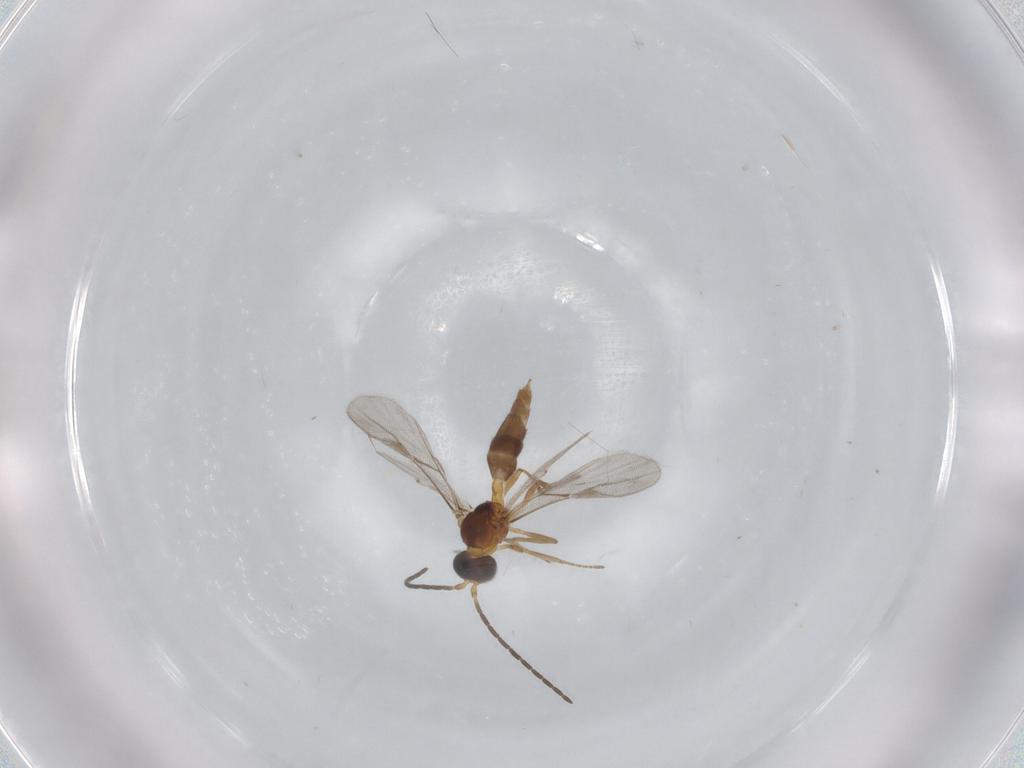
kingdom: Animalia
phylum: Arthropoda
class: Insecta
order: Hymenoptera
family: Braconidae
